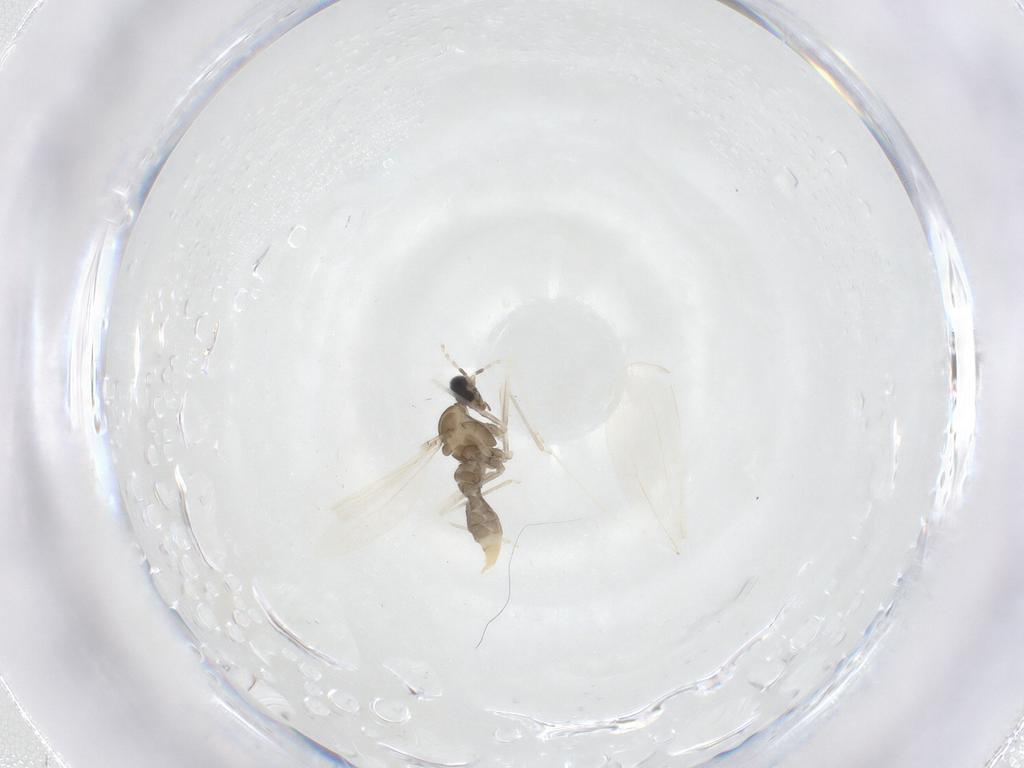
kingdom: Animalia
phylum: Arthropoda
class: Insecta
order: Diptera
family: Cecidomyiidae
